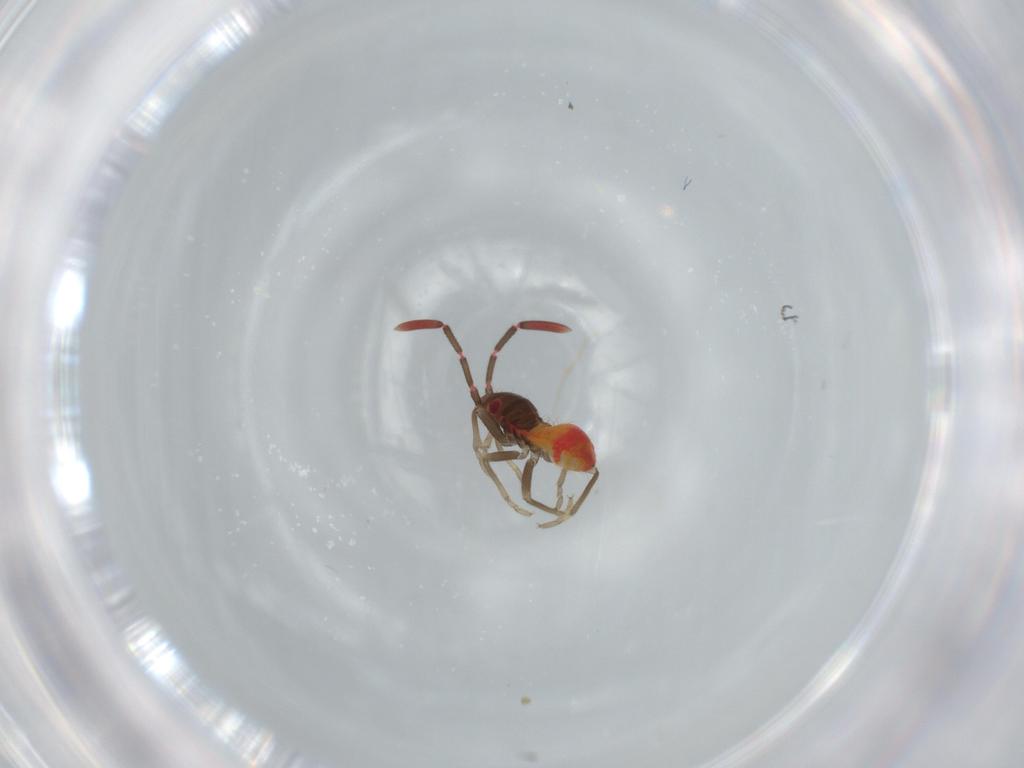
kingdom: Animalia
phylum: Arthropoda
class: Insecta
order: Hemiptera
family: Rhyparochromidae
